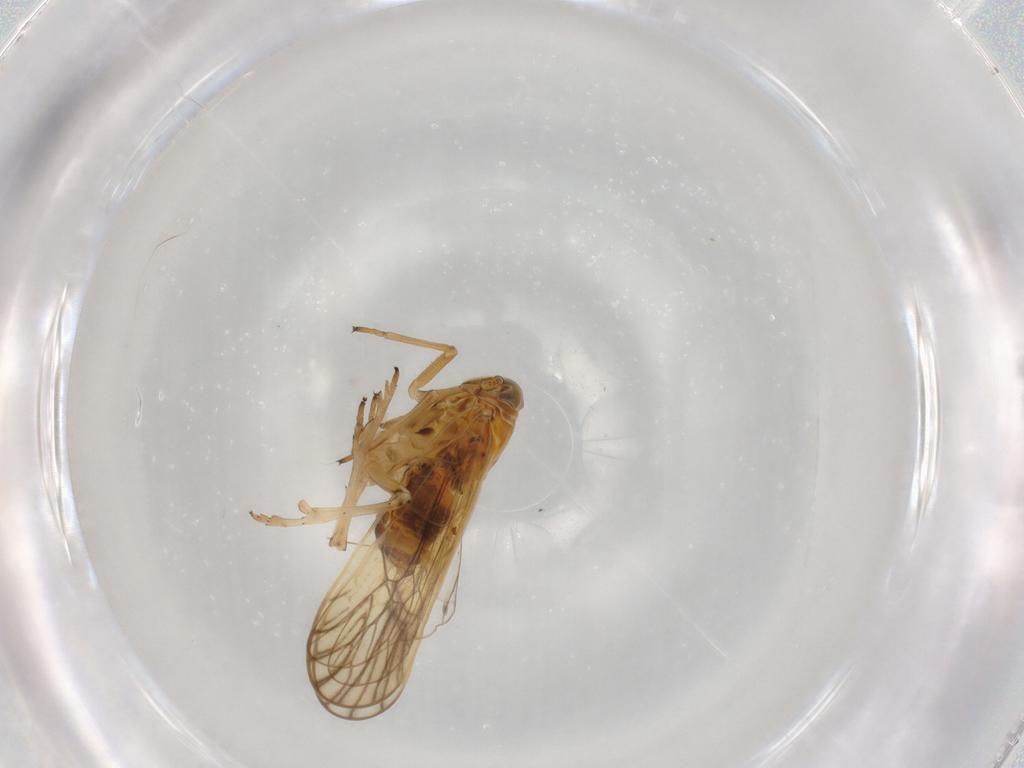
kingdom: Animalia
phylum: Arthropoda
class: Insecta
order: Hemiptera
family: Delphacidae
